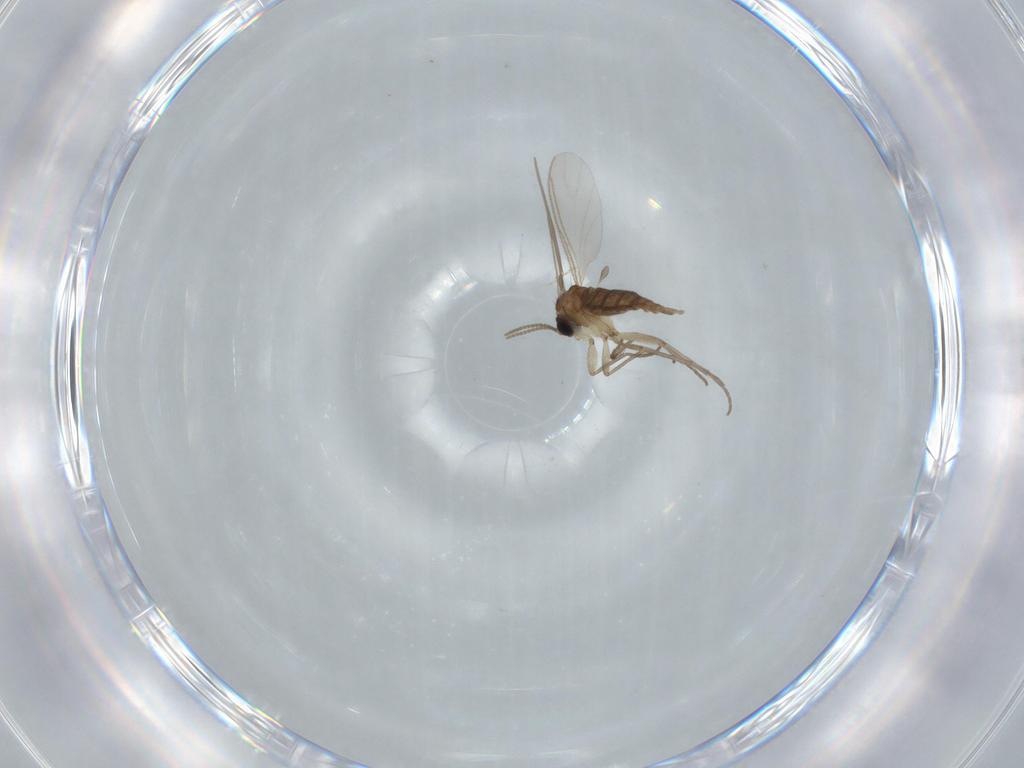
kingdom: Animalia
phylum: Arthropoda
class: Insecta
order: Diptera
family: Sciaridae
